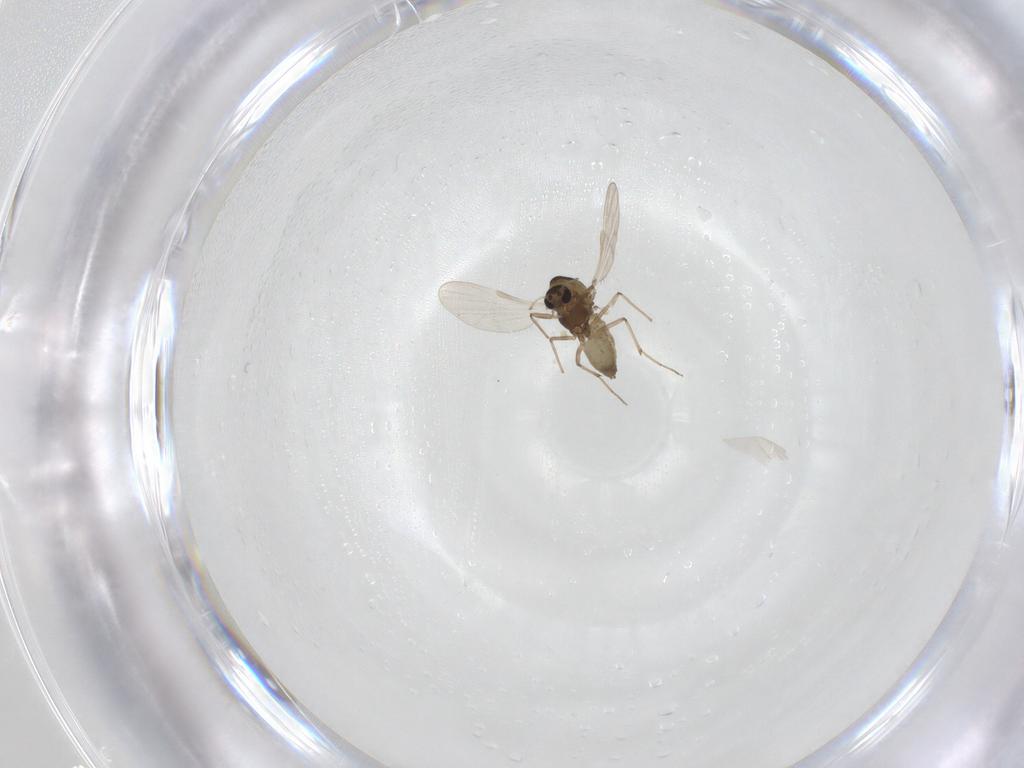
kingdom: Animalia
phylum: Arthropoda
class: Insecta
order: Diptera
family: Chironomidae
